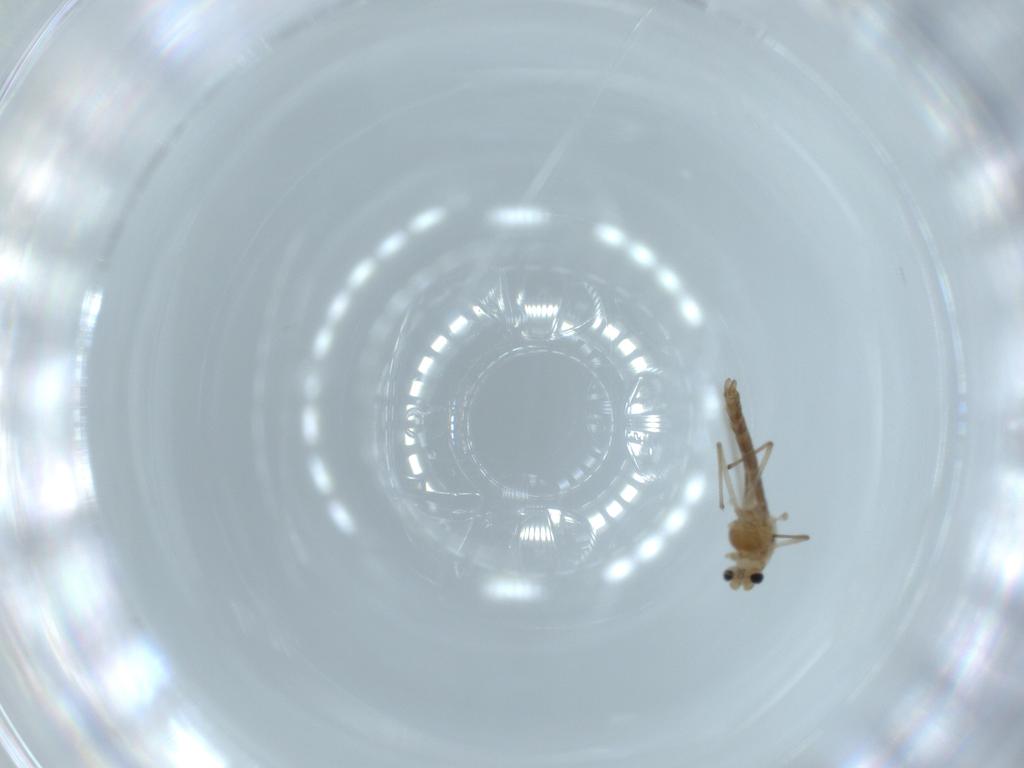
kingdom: Animalia
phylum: Arthropoda
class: Insecta
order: Diptera
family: Chironomidae
